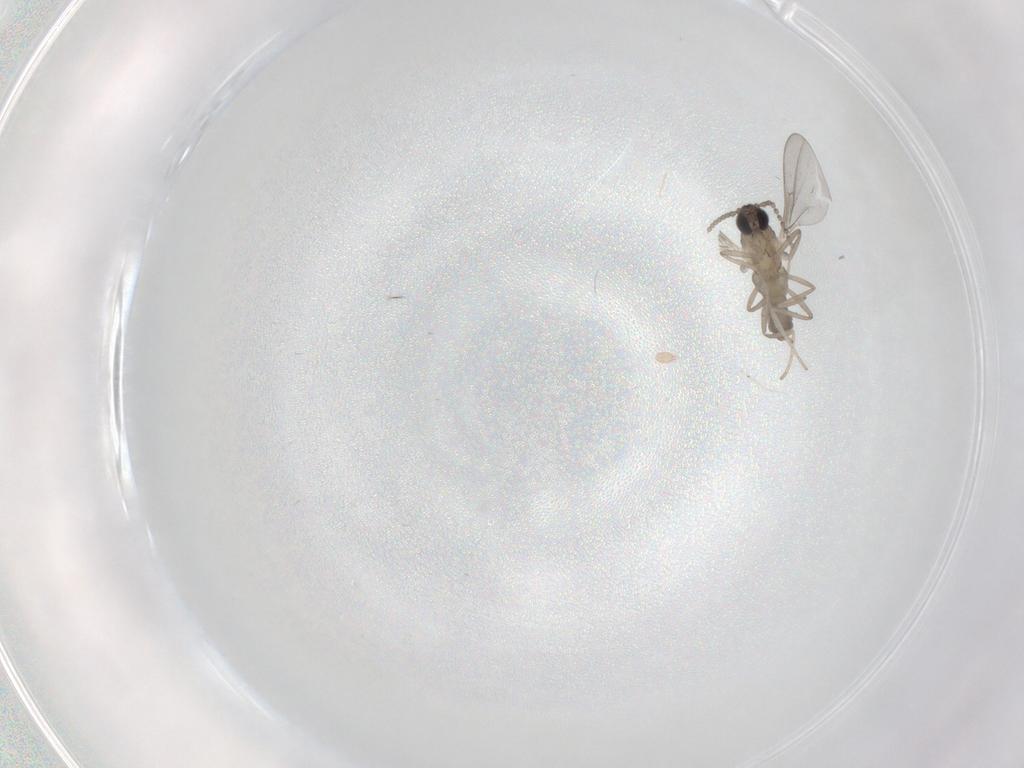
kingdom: Animalia
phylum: Arthropoda
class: Insecta
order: Diptera
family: Cecidomyiidae
